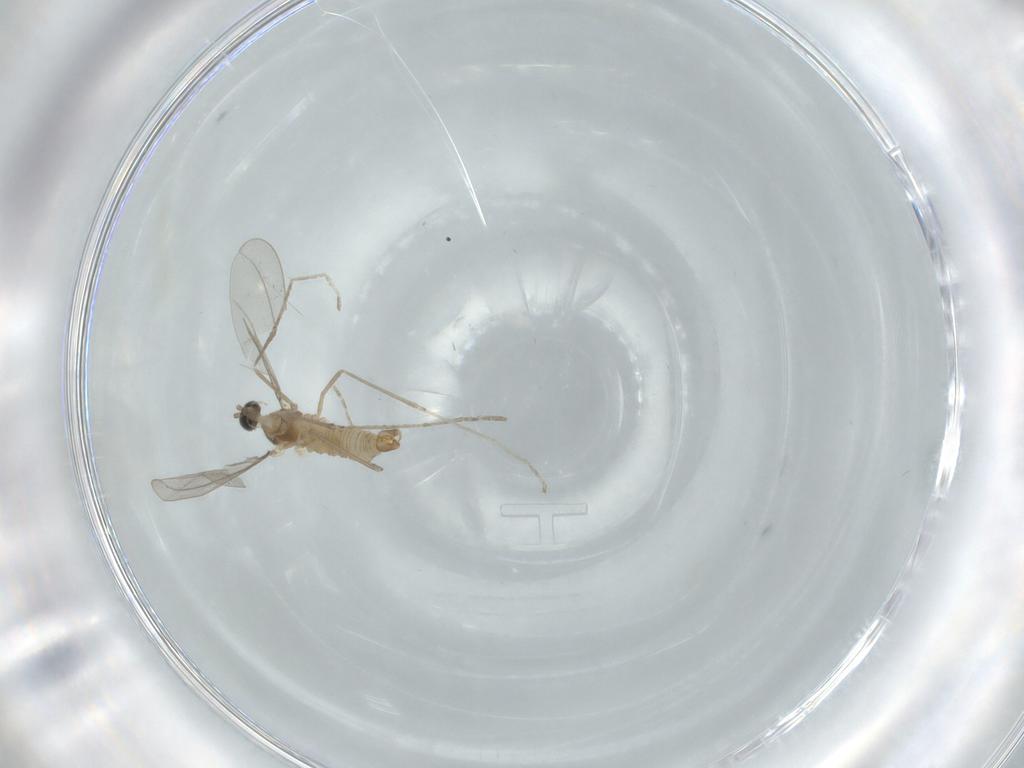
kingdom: Animalia
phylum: Arthropoda
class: Insecta
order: Diptera
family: Cecidomyiidae
